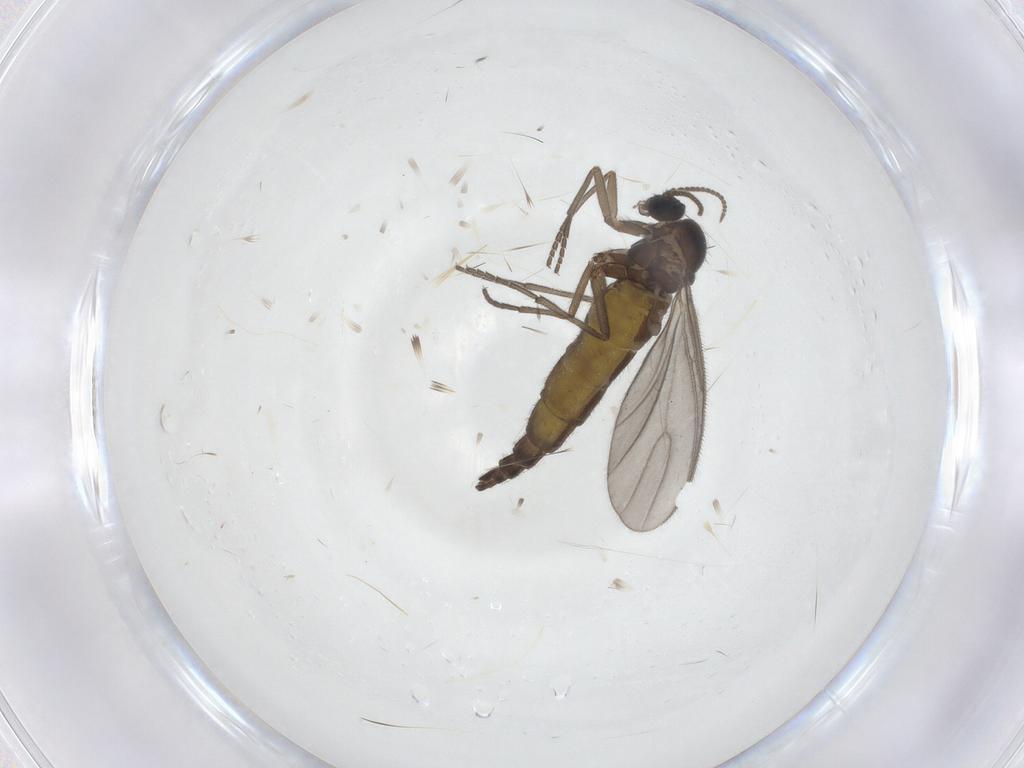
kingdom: Animalia
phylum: Arthropoda
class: Insecta
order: Diptera
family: Sciaridae
